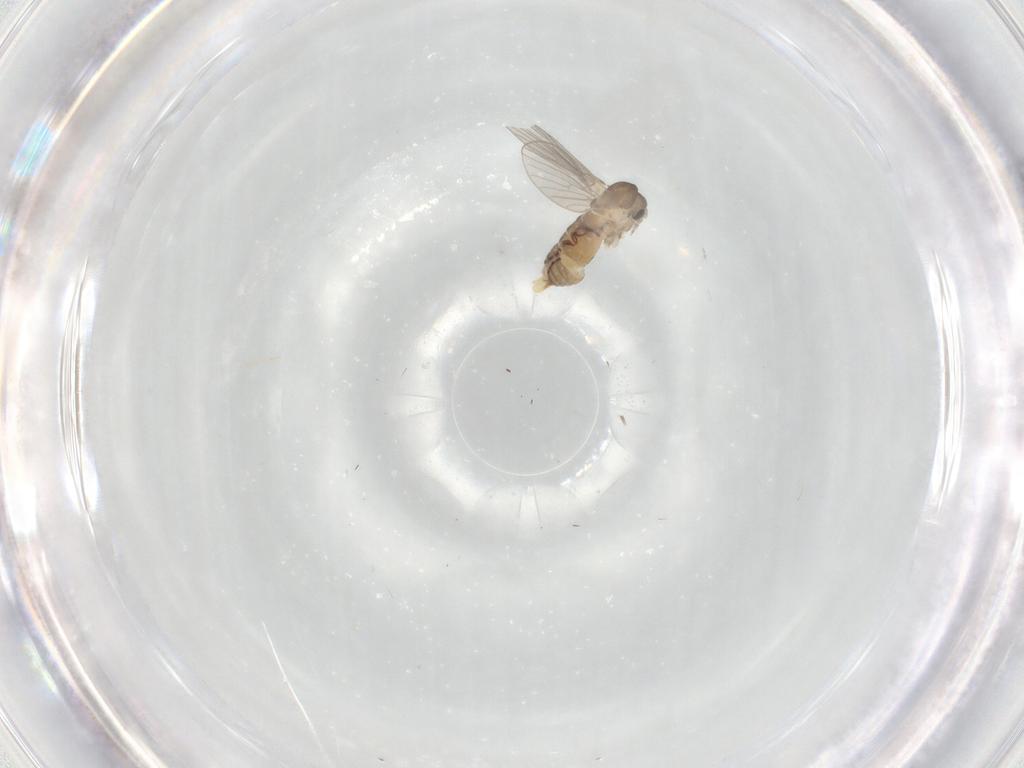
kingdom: Animalia
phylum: Arthropoda
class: Insecta
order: Diptera
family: Psychodidae
